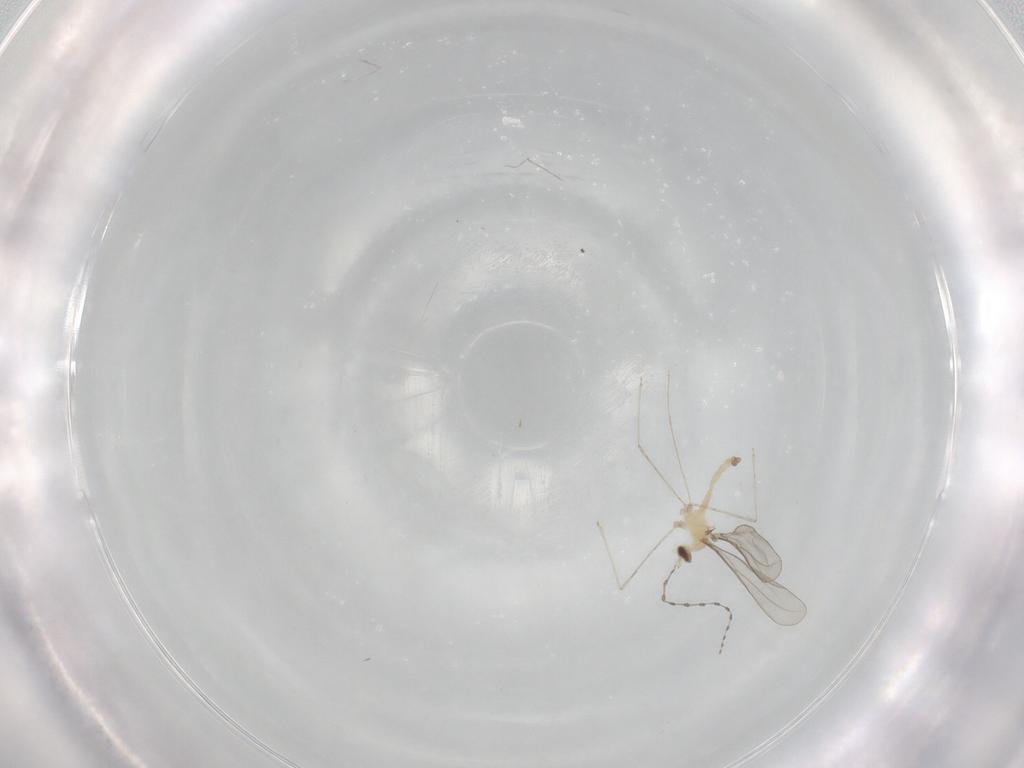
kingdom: Animalia
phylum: Arthropoda
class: Insecta
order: Diptera
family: Cecidomyiidae
